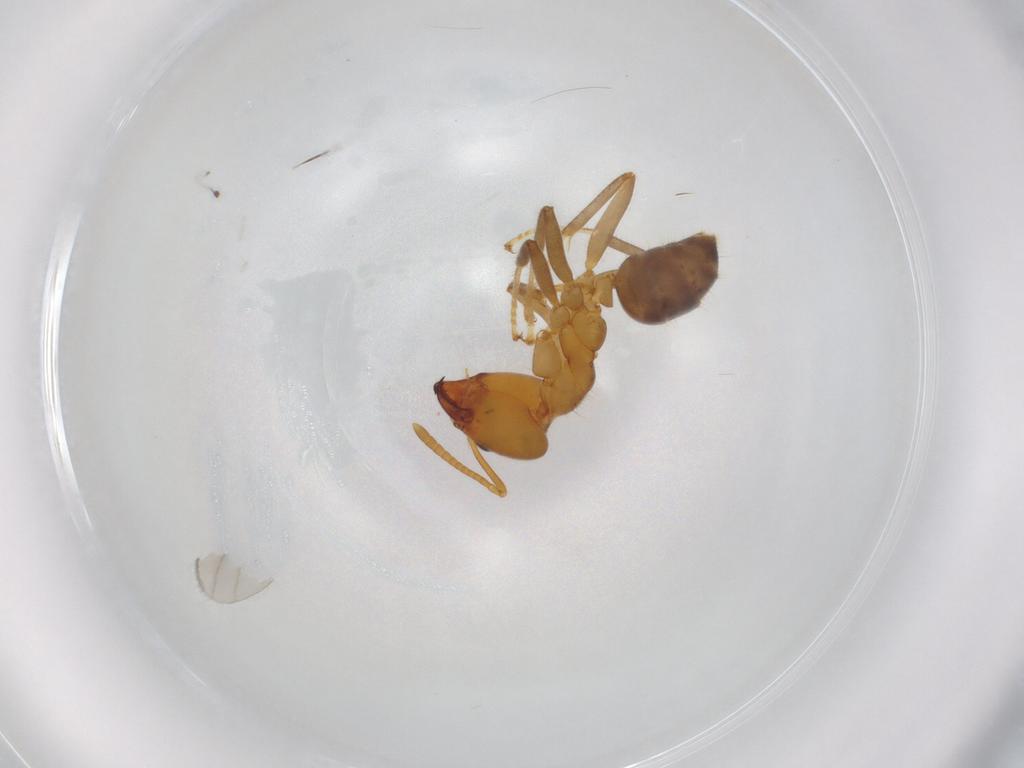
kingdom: Animalia
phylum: Arthropoda
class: Insecta
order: Hymenoptera
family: Formicidae
